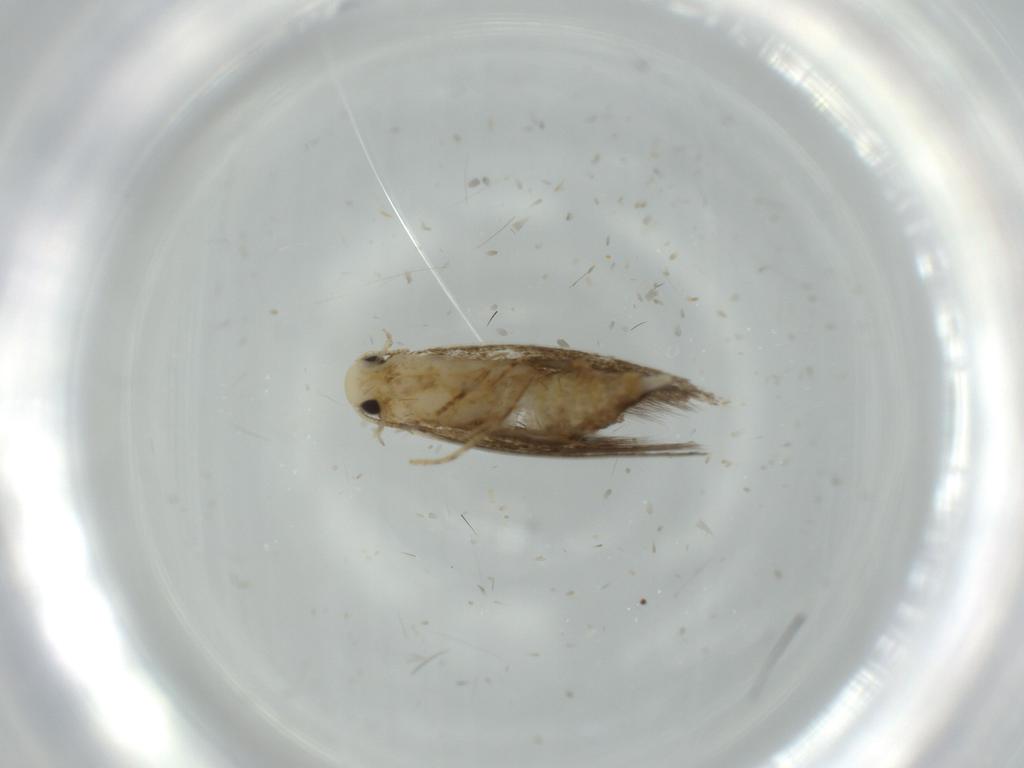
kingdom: Animalia
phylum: Arthropoda
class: Insecta
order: Lepidoptera
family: Tineidae
